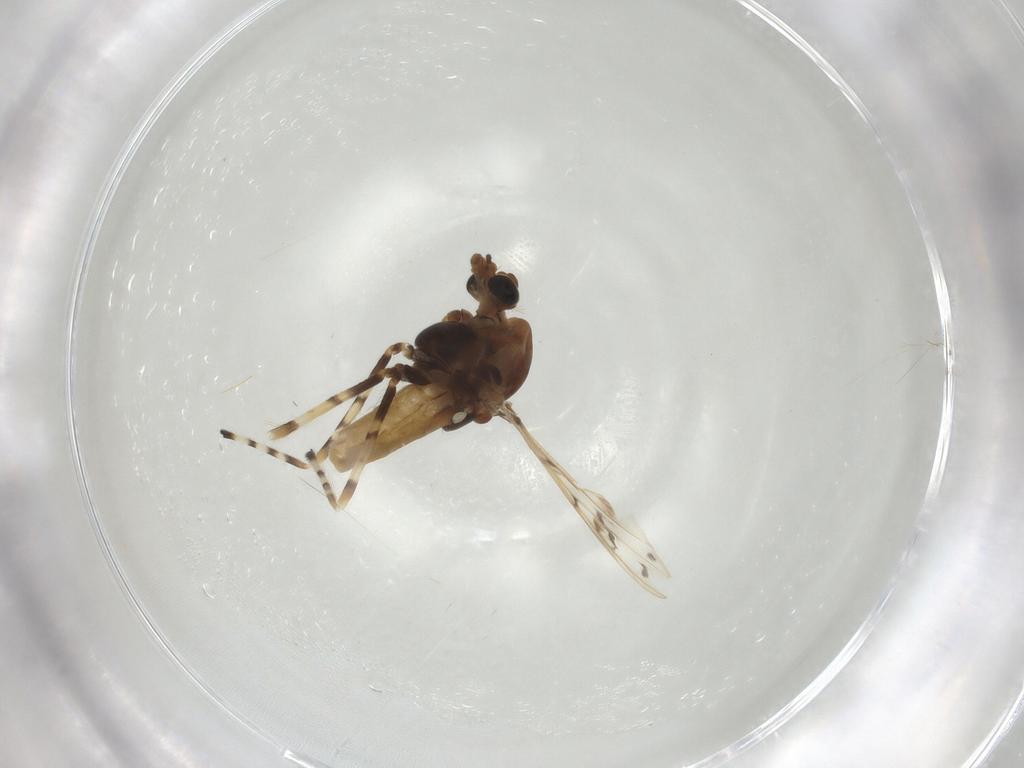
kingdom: Animalia
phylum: Arthropoda
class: Insecta
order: Diptera
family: Chironomidae
